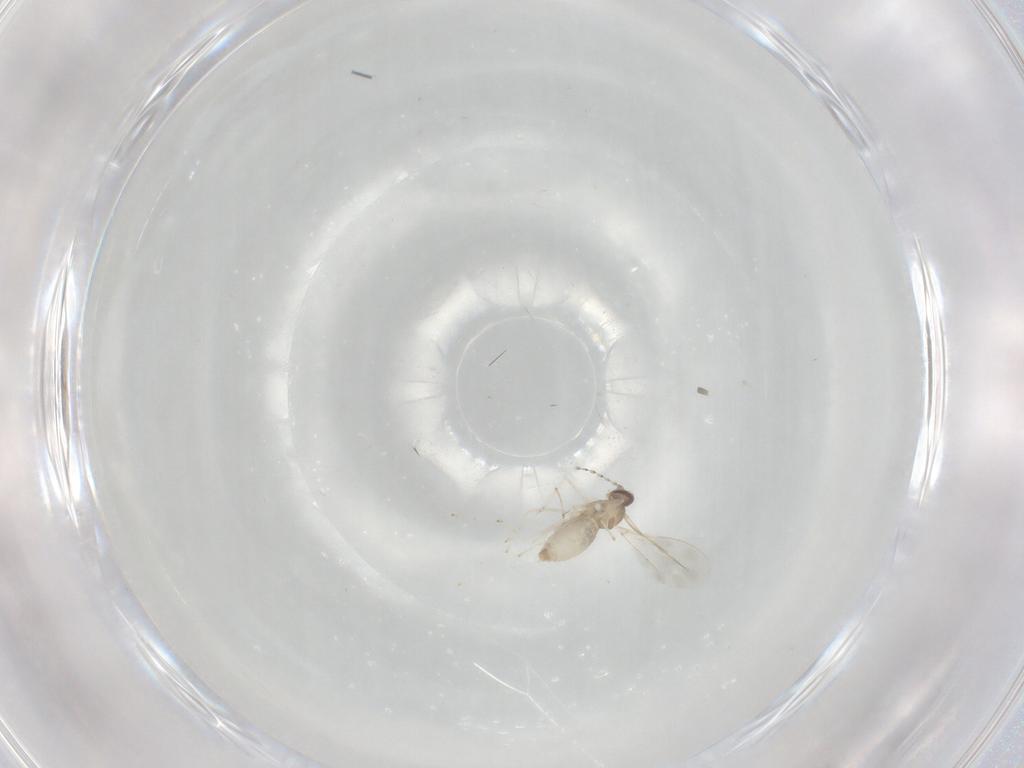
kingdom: Animalia
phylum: Arthropoda
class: Insecta
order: Diptera
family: Cecidomyiidae
